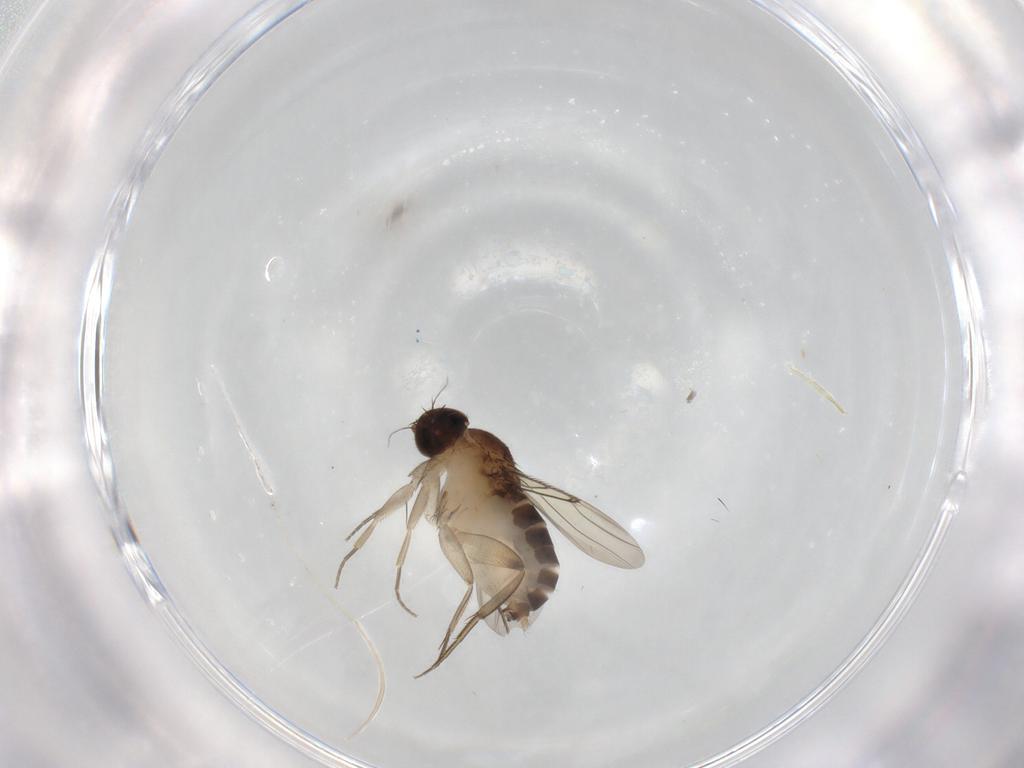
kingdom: Animalia
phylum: Arthropoda
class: Insecta
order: Diptera
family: Phoridae
